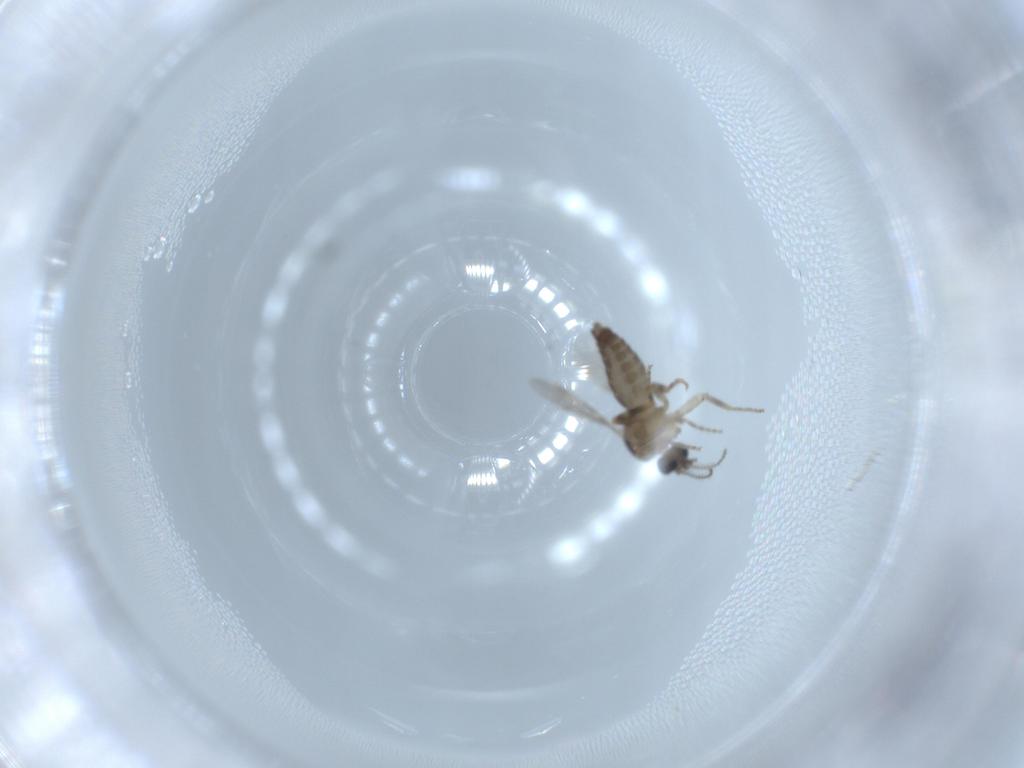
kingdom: Animalia
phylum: Arthropoda
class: Insecta
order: Diptera
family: Ceratopogonidae
